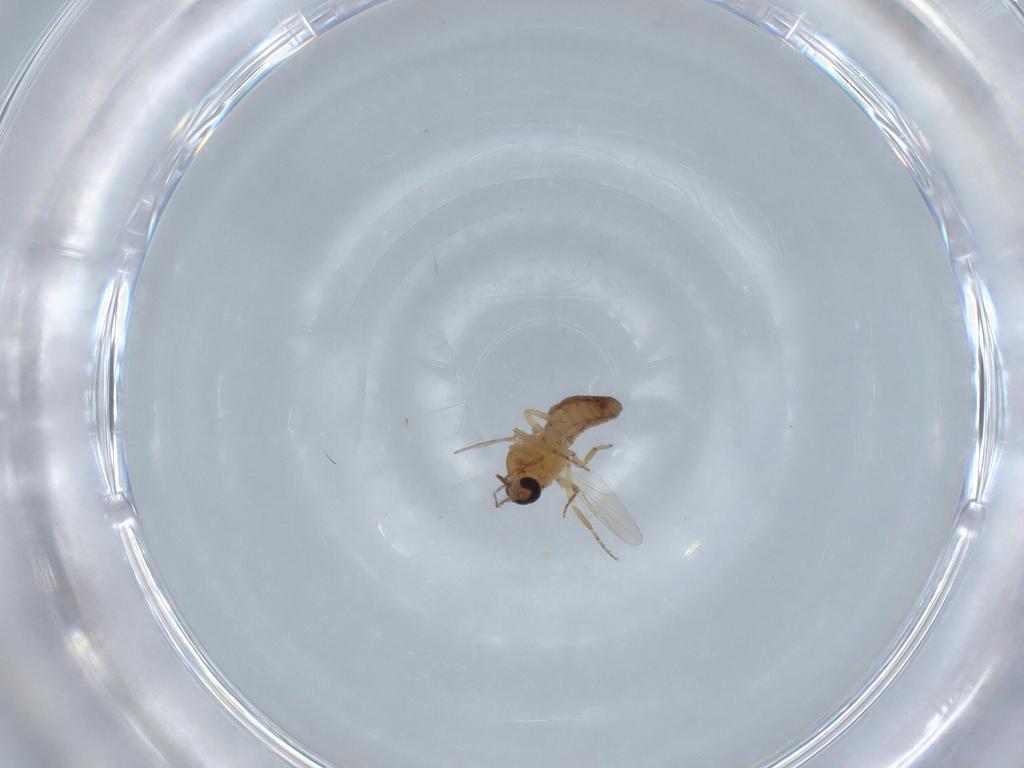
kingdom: Animalia
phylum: Arthropoda
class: Insecta
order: Diptera
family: Ceratopogonidae
